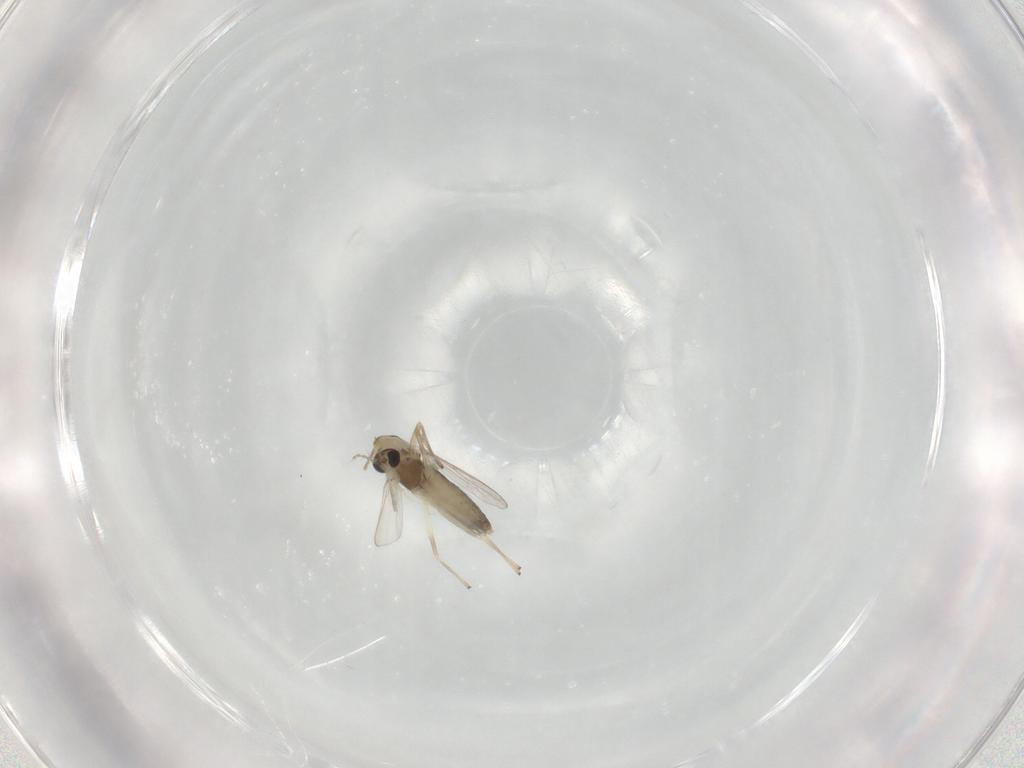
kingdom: Animalia
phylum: Arthropoda
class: Insecta
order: Diptera
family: Chironomidae
